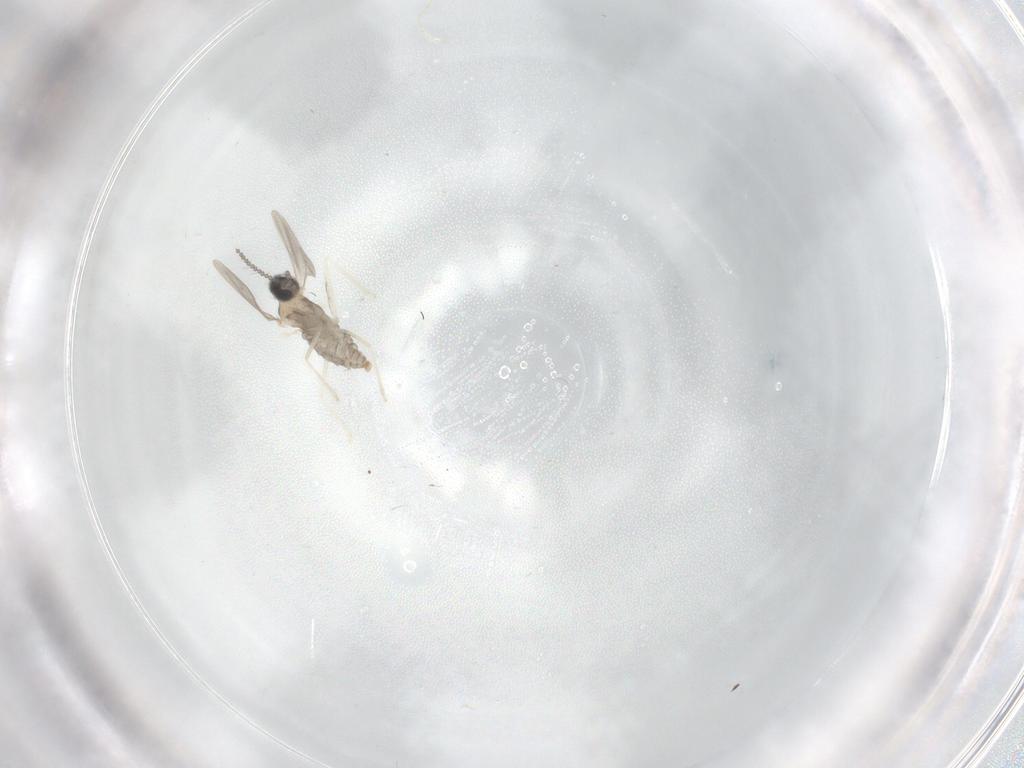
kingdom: Animalia
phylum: Arthropoda
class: Insecta
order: Diptera
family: Cecidomyiidae
